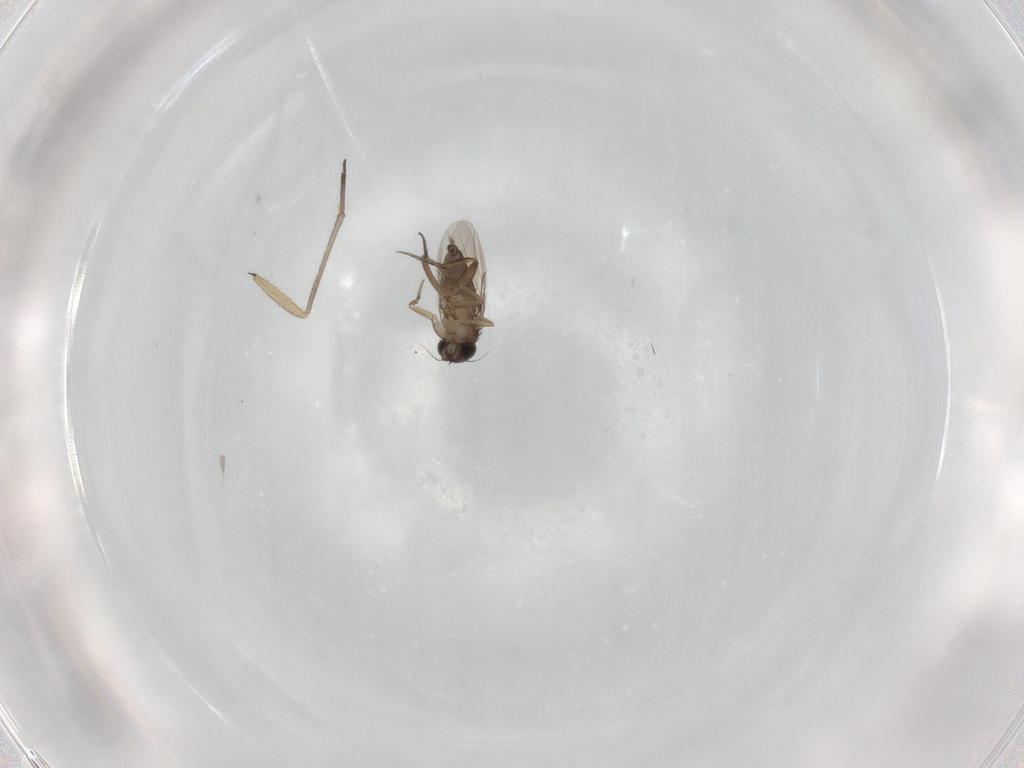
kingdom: Animalia
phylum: Arthropoda
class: Insecta
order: Diptera
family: Phoridae
